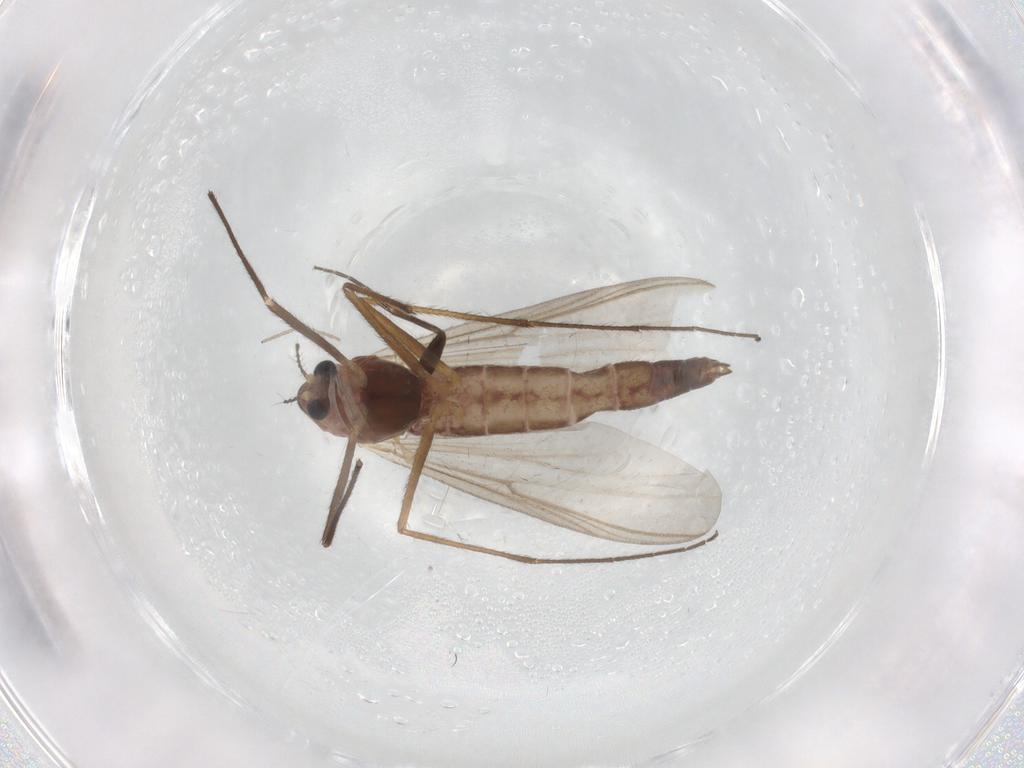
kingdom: Animalia
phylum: Arthropoda
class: Insecta
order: Diptera
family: Chironomidae
